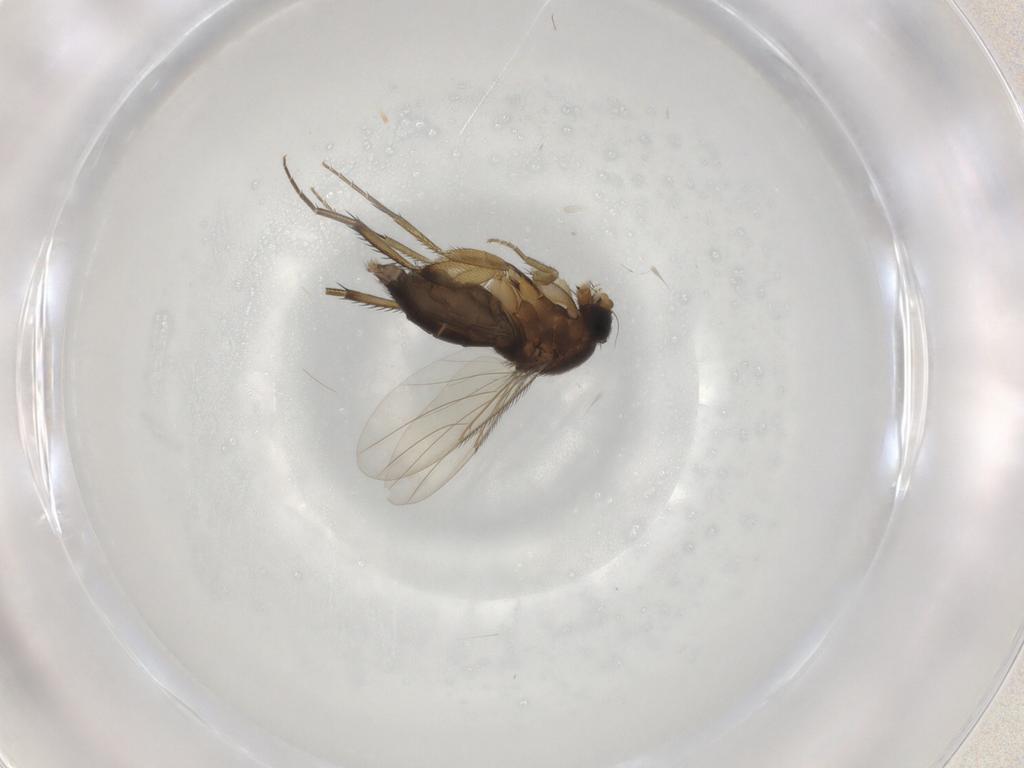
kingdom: Animalia
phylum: Arthropoda
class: Insecta
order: Diptera
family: Phoridae
